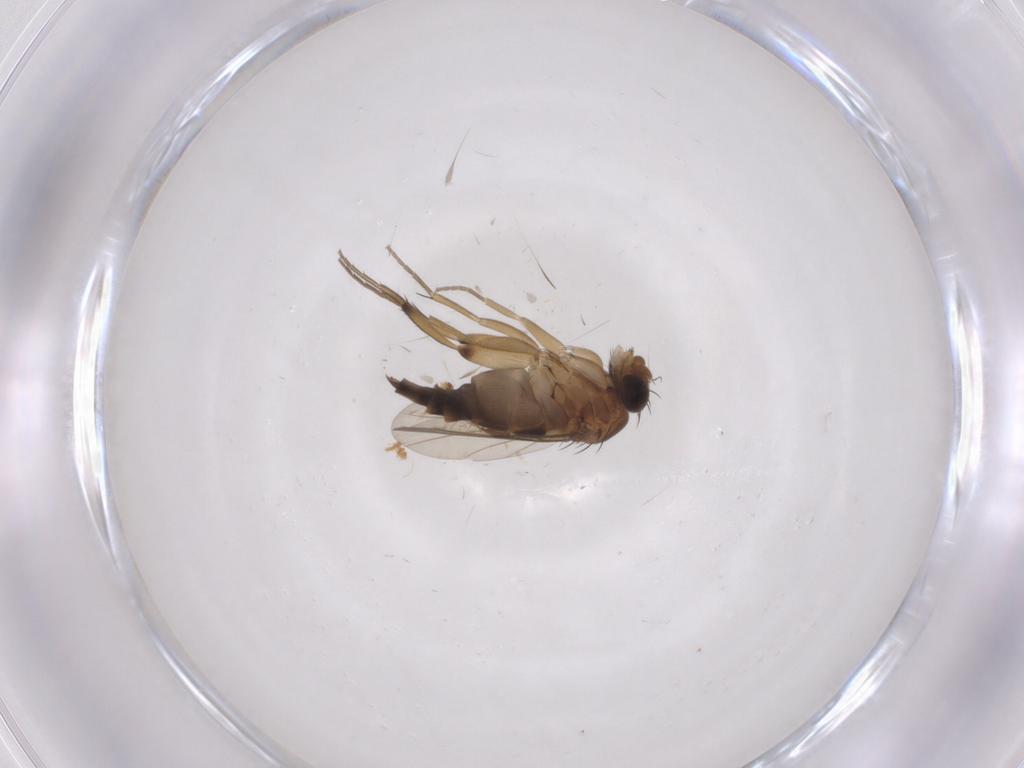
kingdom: Animalia
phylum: Arthropoda
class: Insecta
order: Diptera
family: Phoridae
